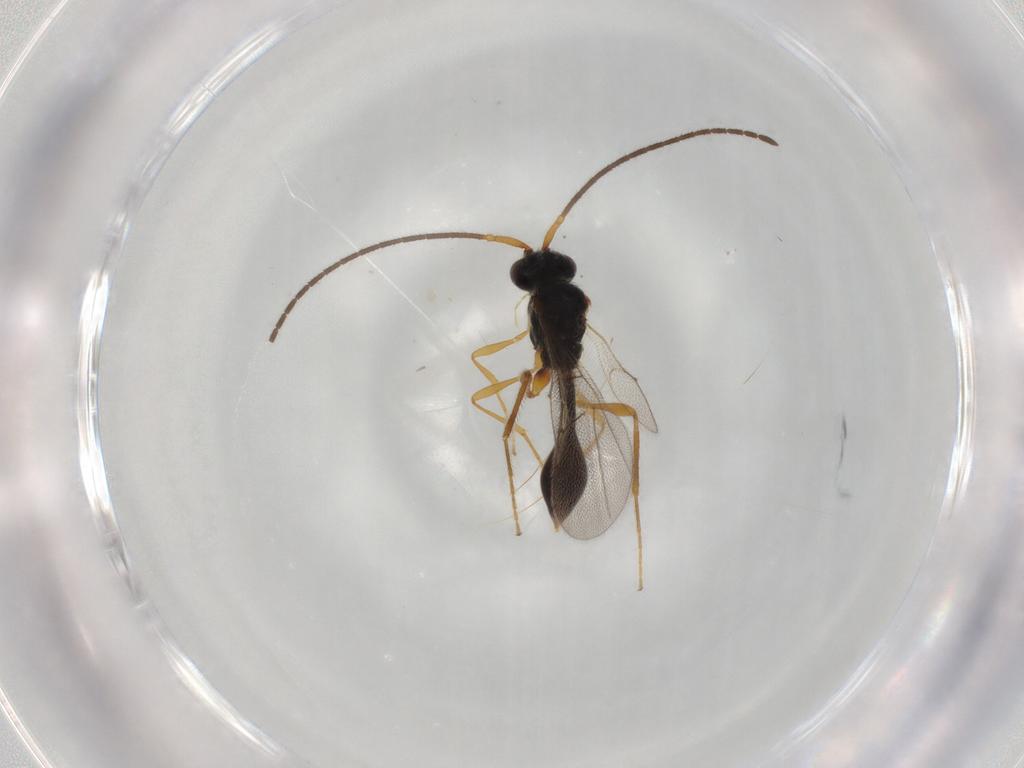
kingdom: Animalia
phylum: Arthropoda
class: Insecta
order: Hymenoptera
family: Diapriidae
